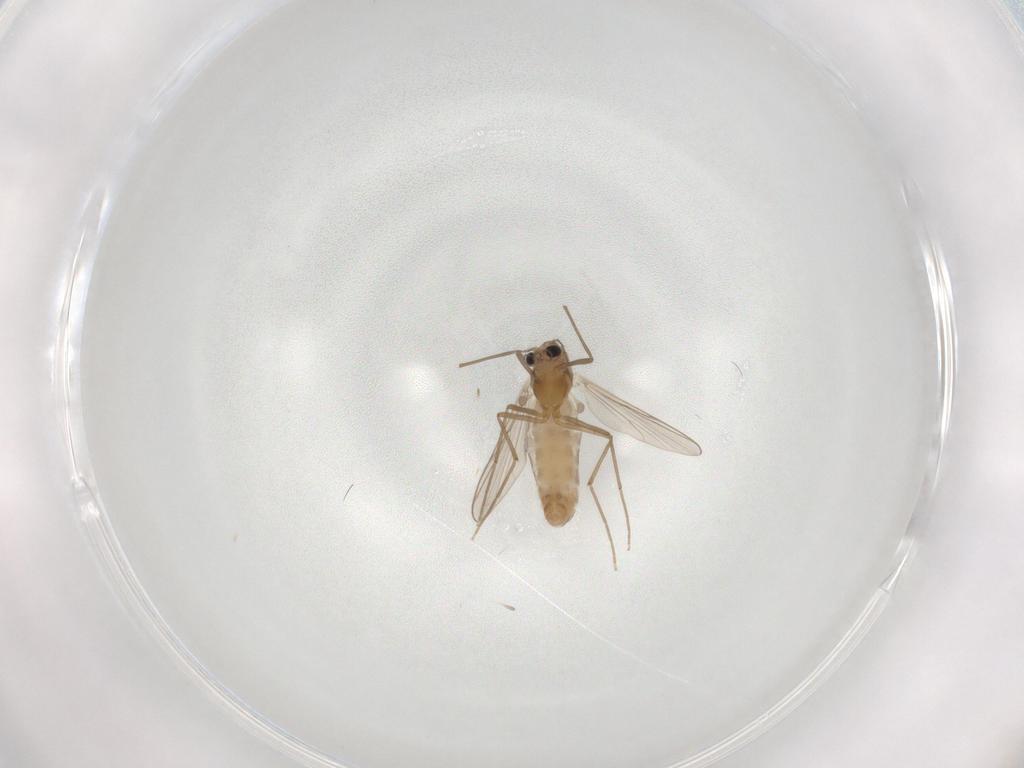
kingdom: Animalia
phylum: Arthropoda
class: Insecta
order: Diptera
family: Chironomidae
